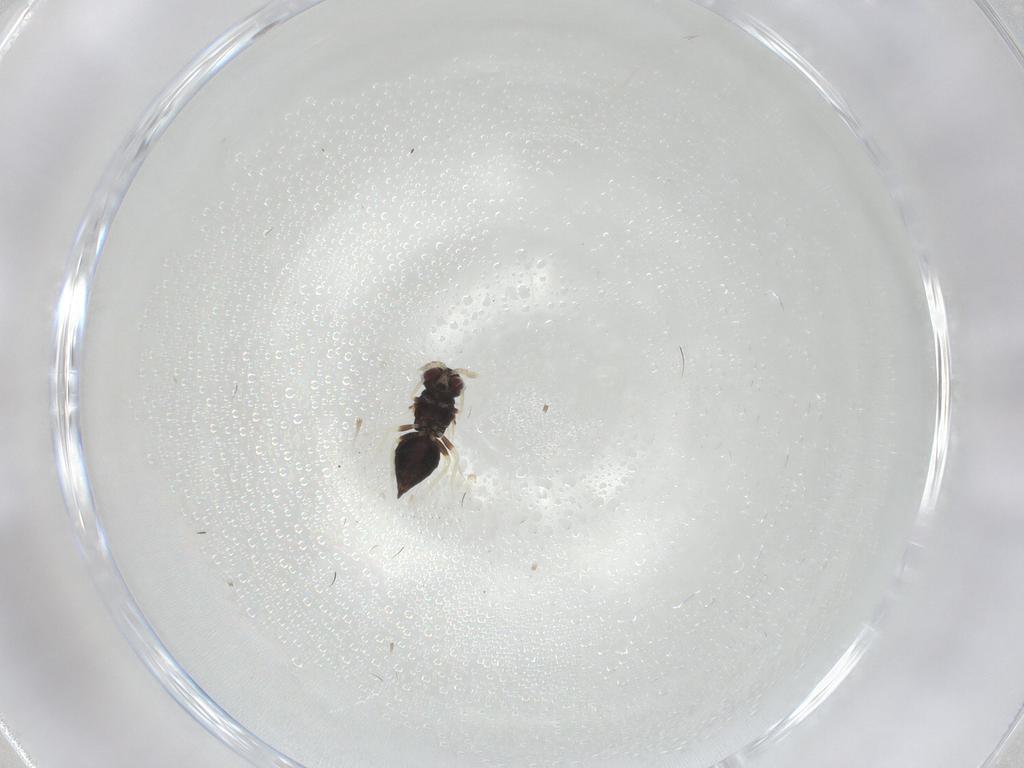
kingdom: Animalia
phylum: Arthropoda
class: Insecta
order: Hymenoptera
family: Eulophidae
